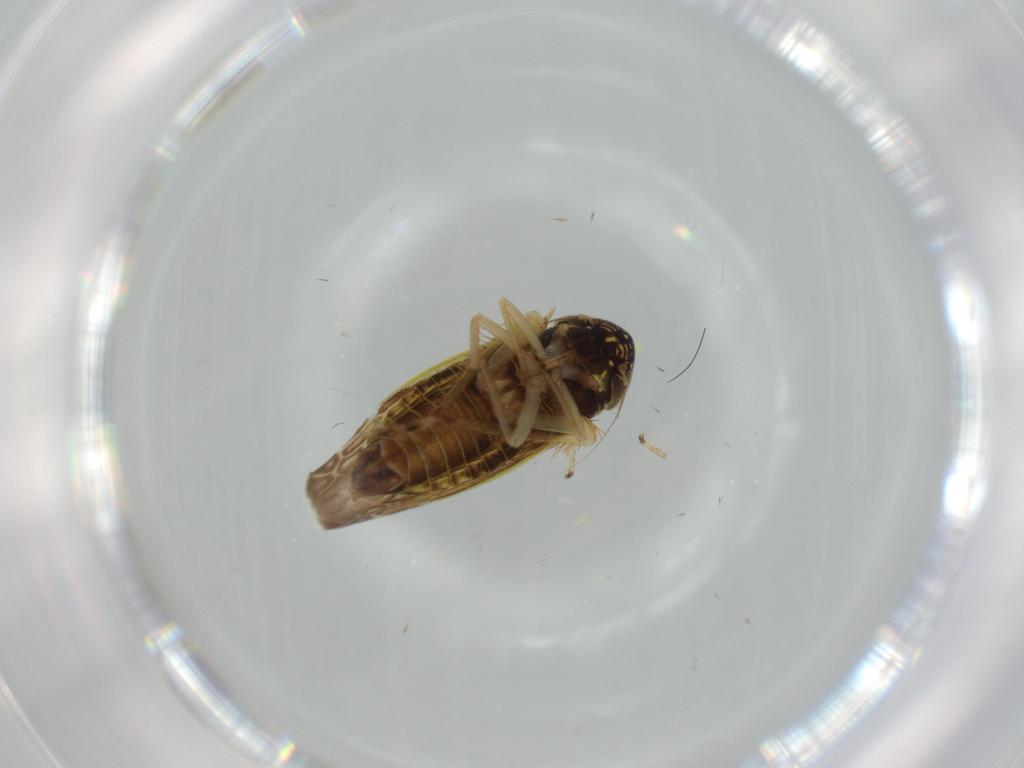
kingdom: Animalia
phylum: Arthropoda
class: Insecta
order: Hemiptera
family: Cicadellidae
